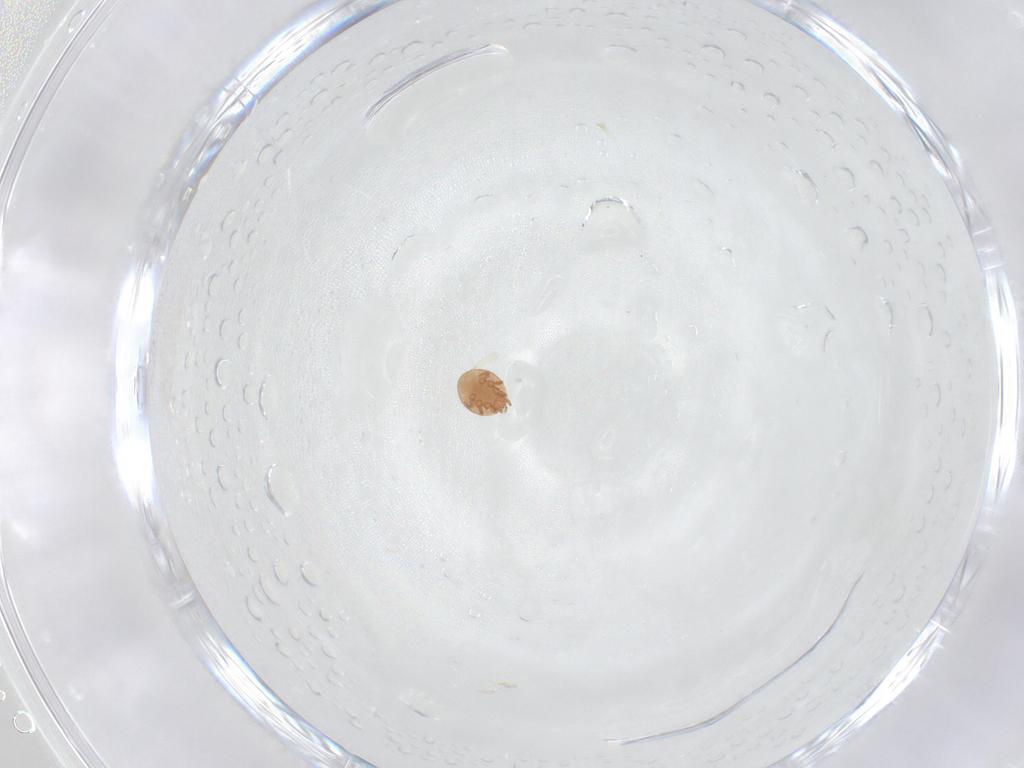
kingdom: Animalia
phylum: Arthropoda
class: Arachnida
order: Mesostigmata
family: Trematuridae
